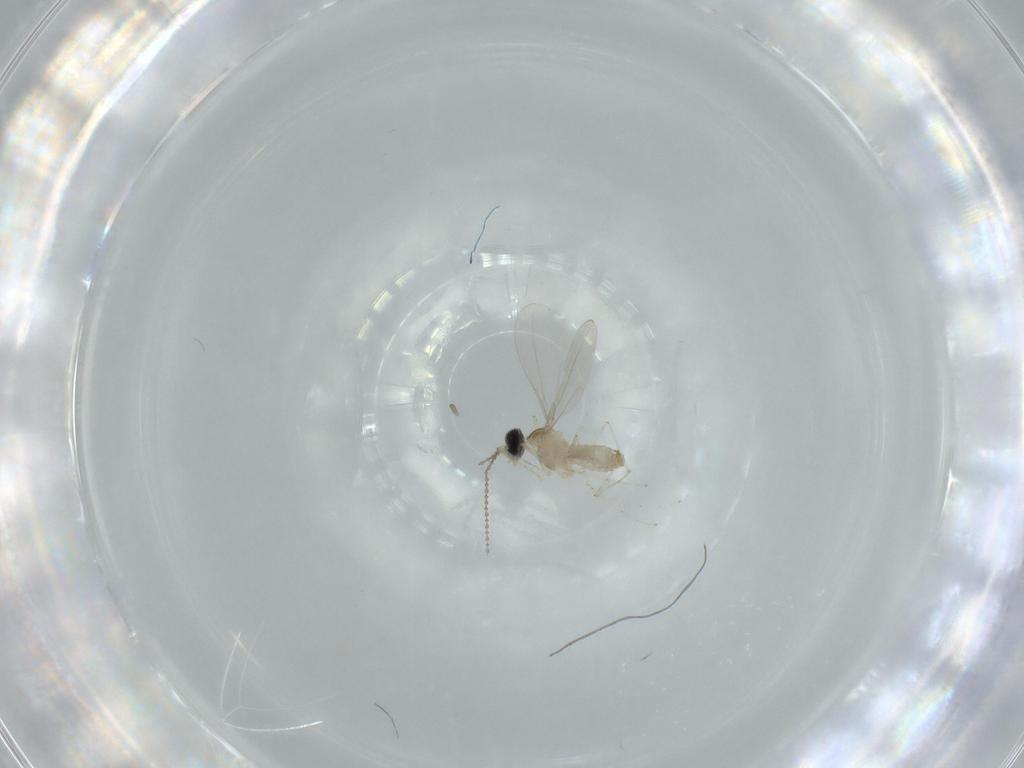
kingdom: Animalia
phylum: Arthropoda
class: Insecta
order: Diptera
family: Cecidomyiidae
